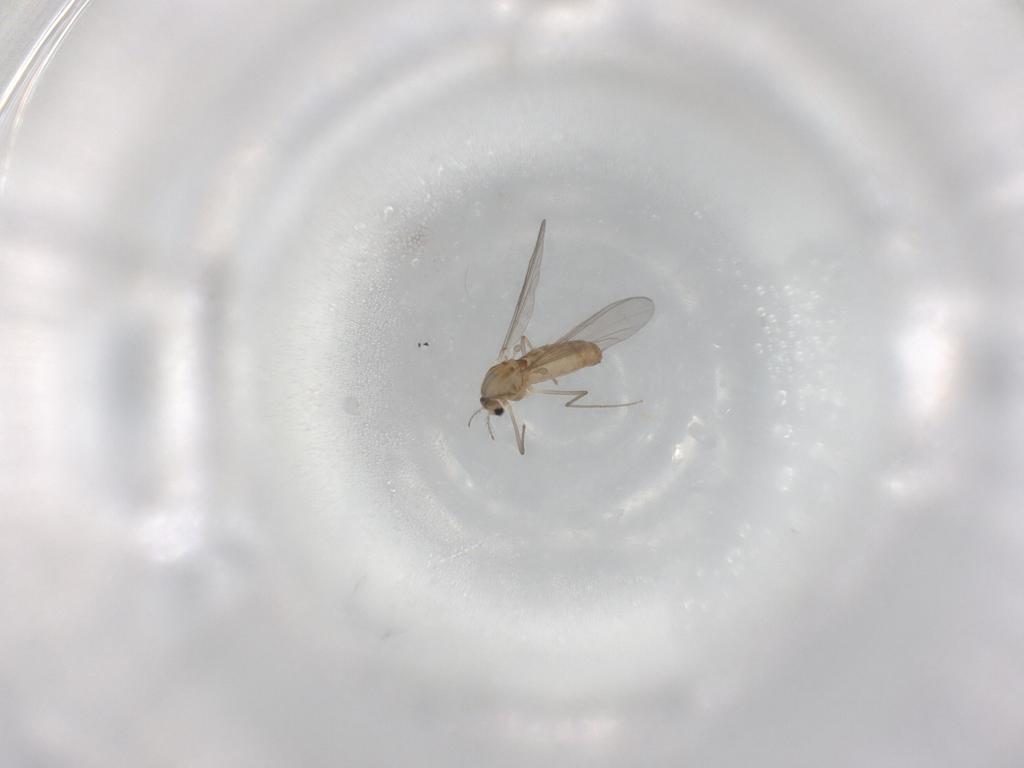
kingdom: Animalia
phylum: Arthropoda
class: Insecta
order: Diptera
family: Chironomidae
